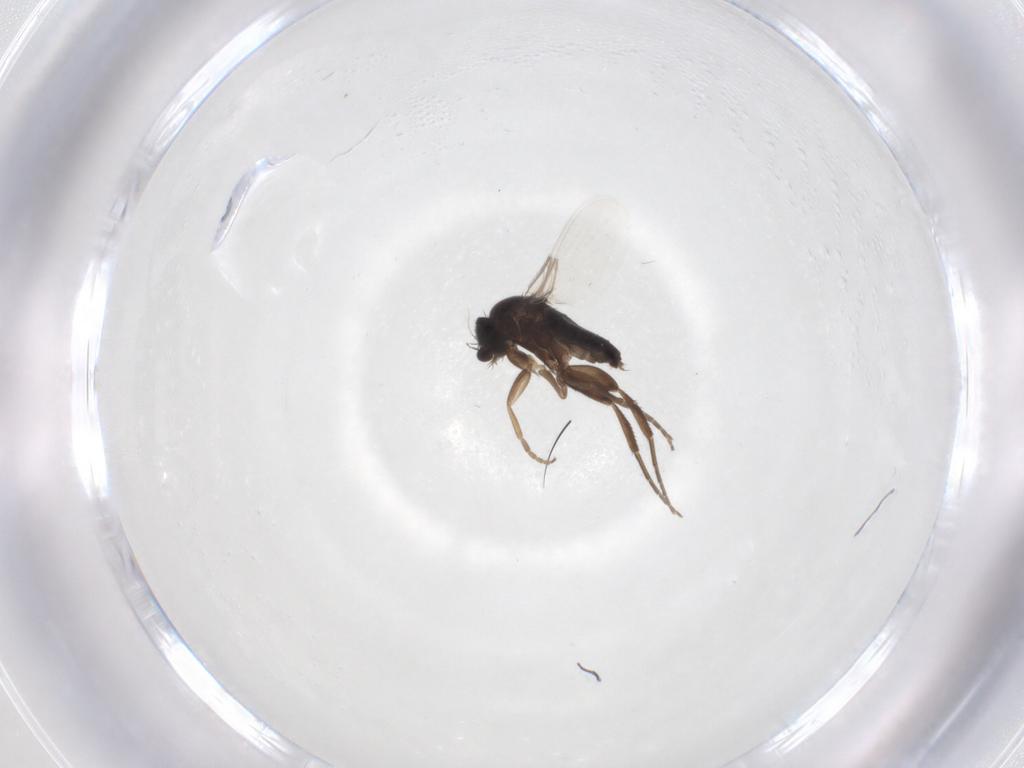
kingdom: Animalia
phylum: Arthropoda
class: Insecta
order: Diptera
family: Phoridae
